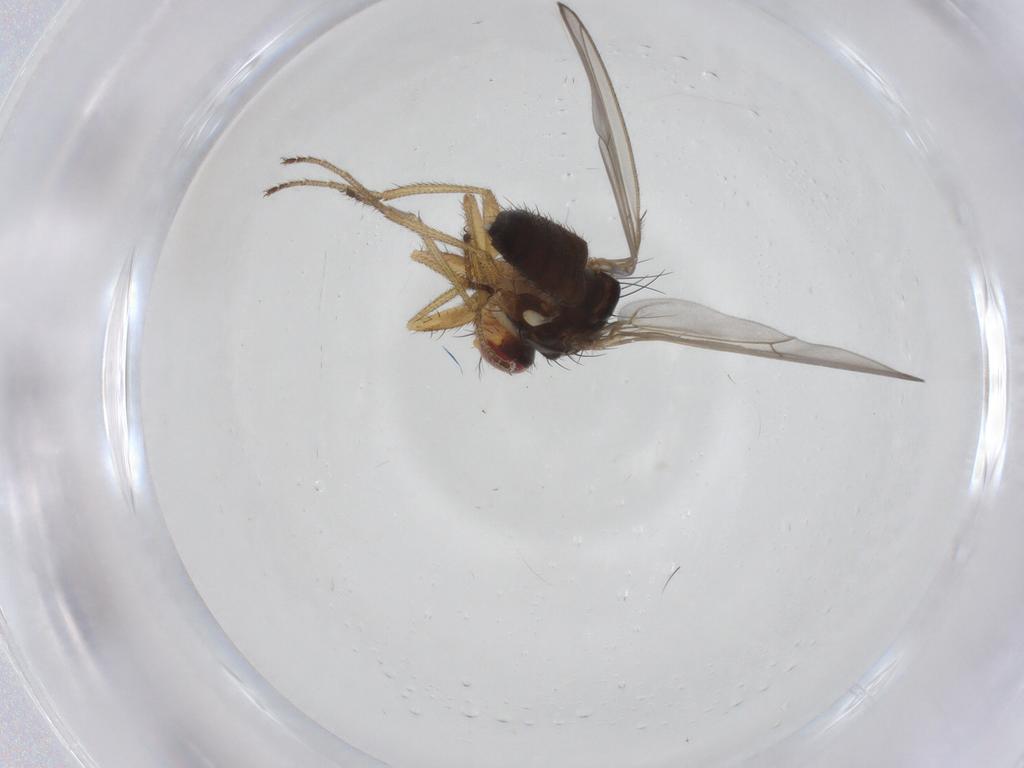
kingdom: Animalia
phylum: Arthropoda
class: Insecta
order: Diptera
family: Drosophilidae
